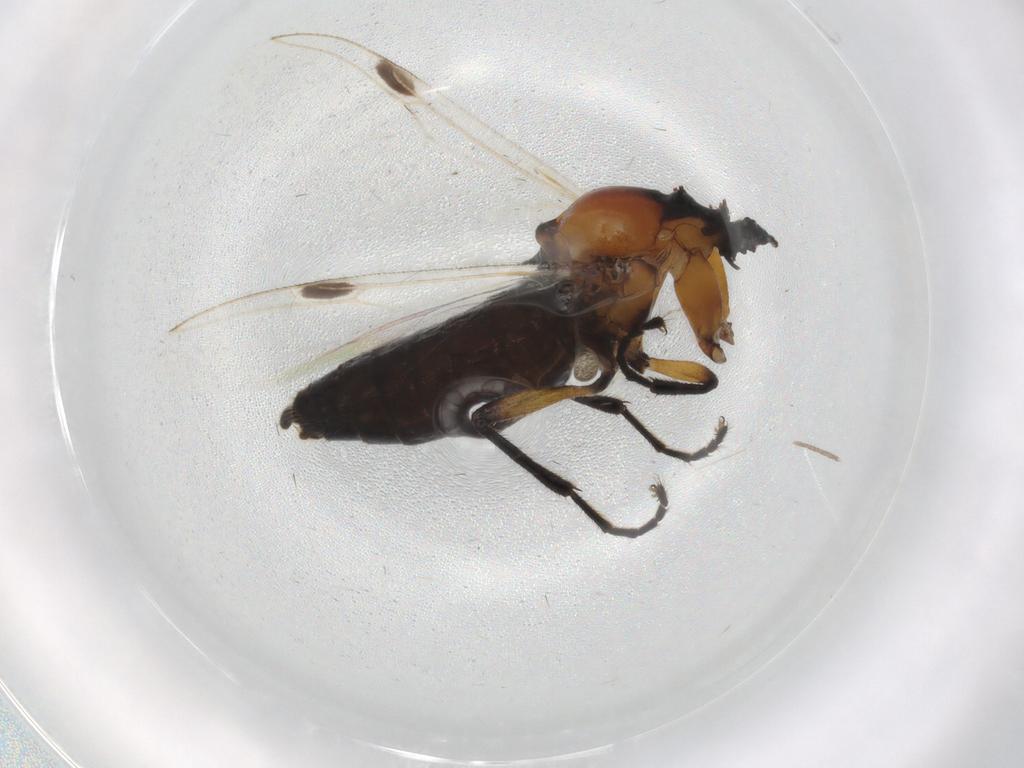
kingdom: Animalia
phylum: Arthropoda
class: Insecta
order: Diptera
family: Bibionidae
